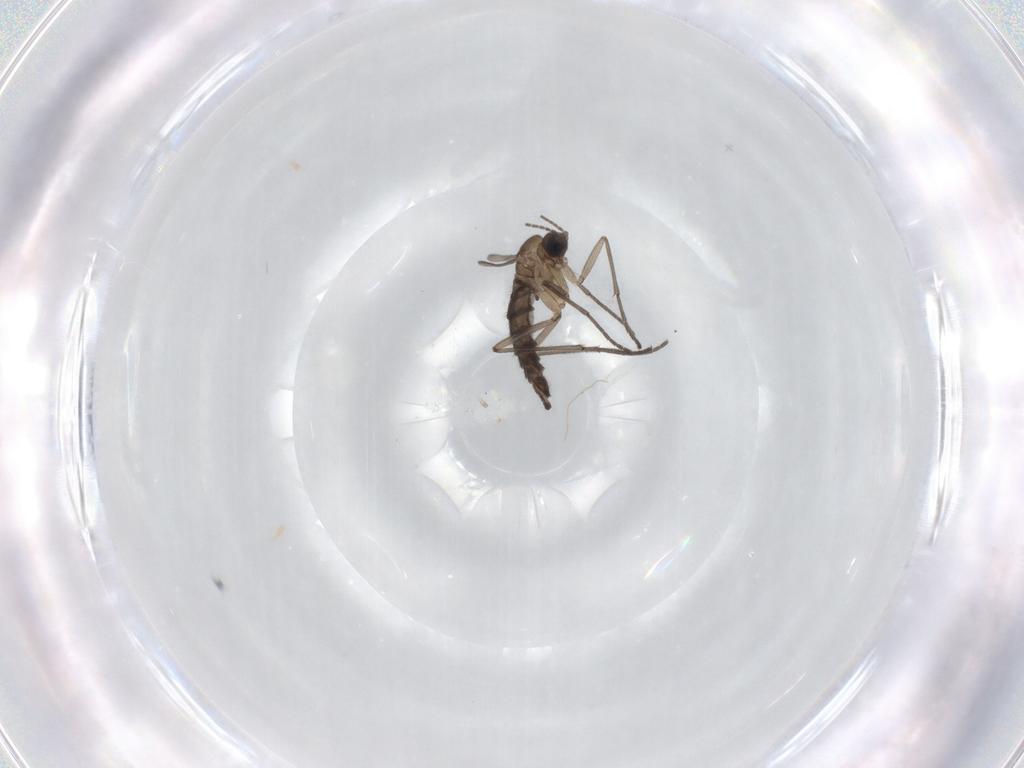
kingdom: Animalia
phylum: Arthropoda
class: Insecta
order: Diptera
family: Sciaridae
